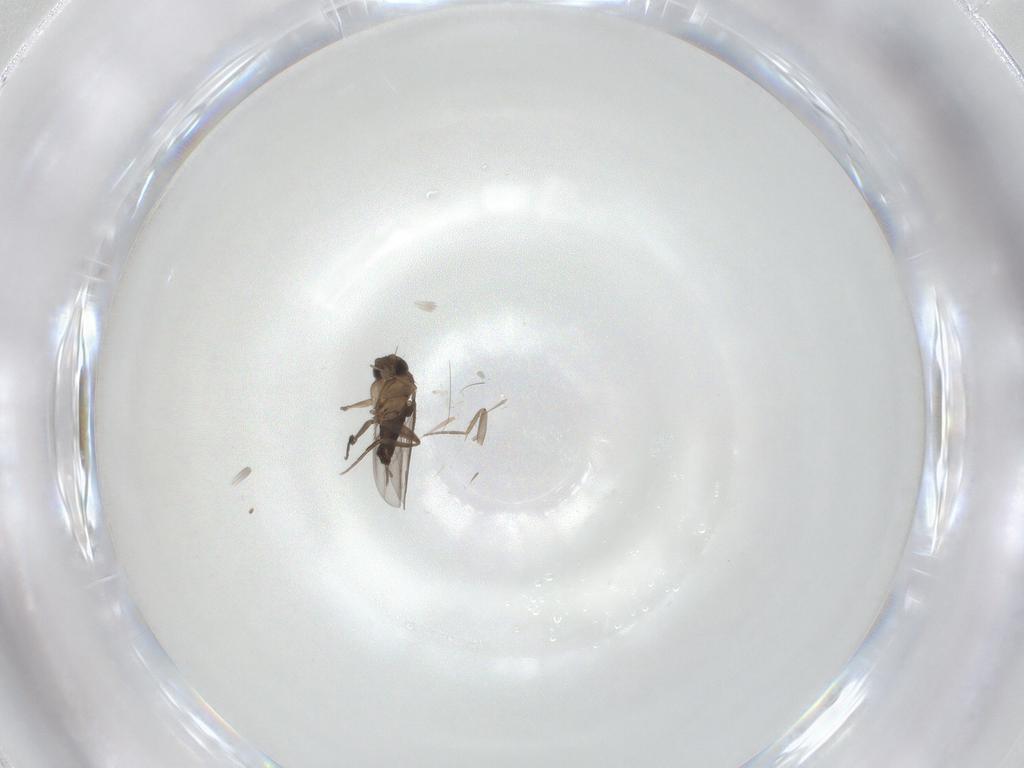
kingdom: Animalia
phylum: Arthropoda
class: Insecta
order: Diptera
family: Phoridae
